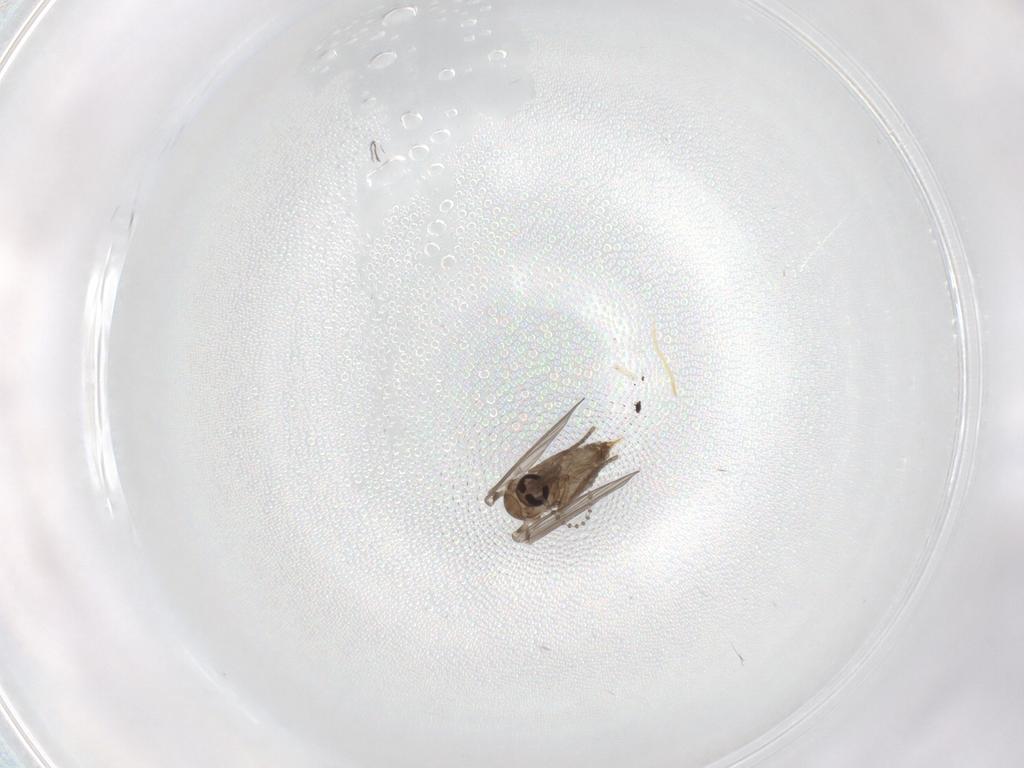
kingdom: Animalia
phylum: Arthropoda
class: Insecta
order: Diptera
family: Psychodidae
